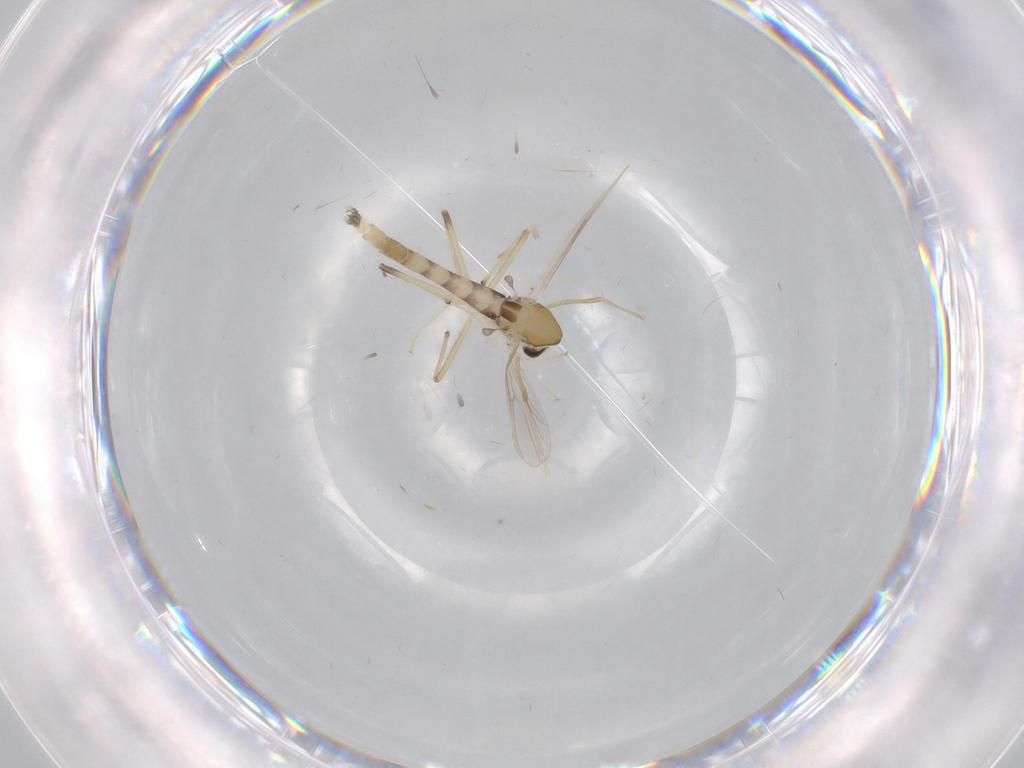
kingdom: Animalia
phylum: Arthropoda
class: Insecta
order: Diptera
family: Chironomidae
